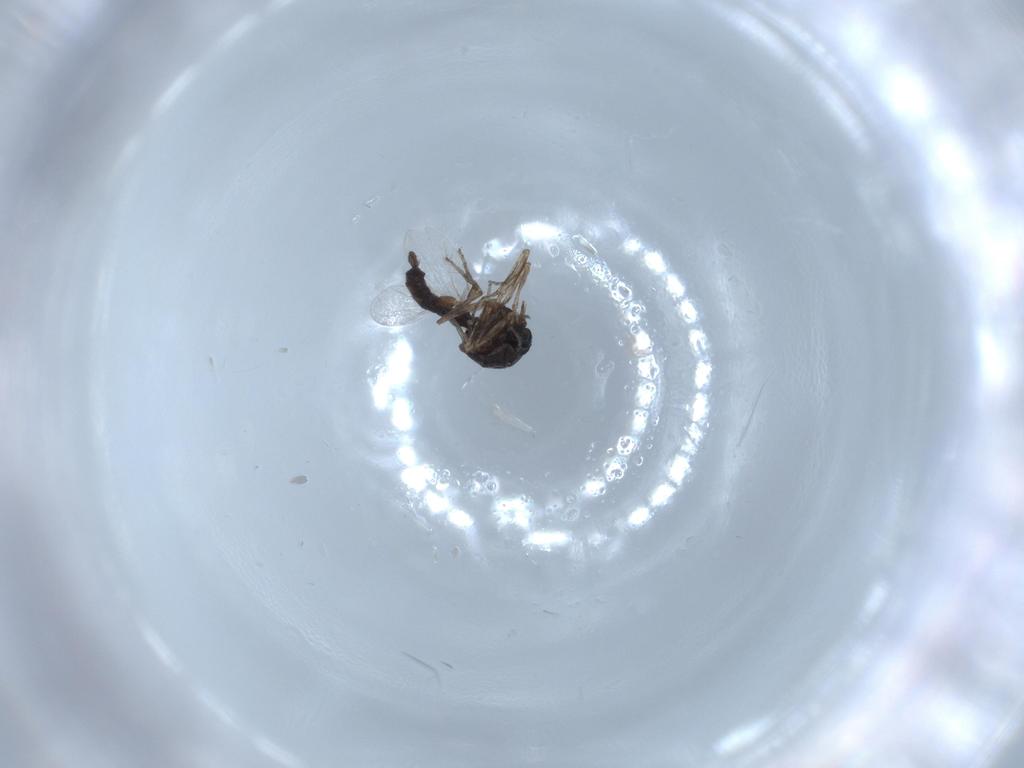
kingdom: Animalia
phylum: Arthropoda
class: Insecta
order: Diptera
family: Ceratopogonidae
